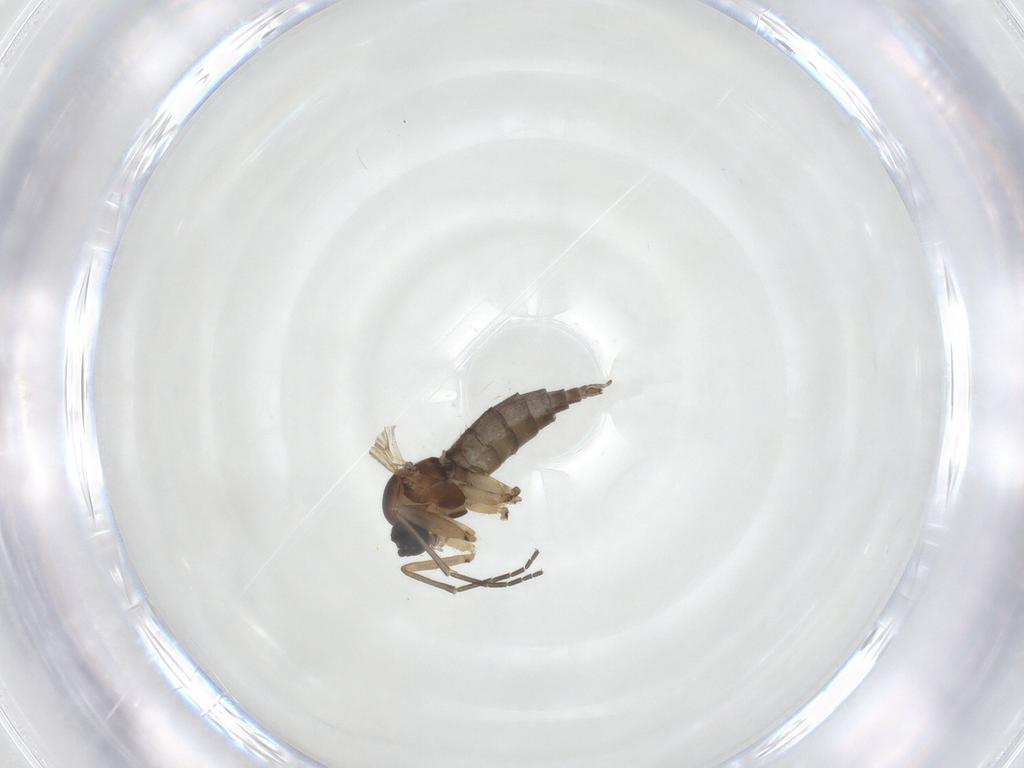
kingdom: Animalia
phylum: Arthropoda
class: Insecta
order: Diptera
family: Sciaridae
